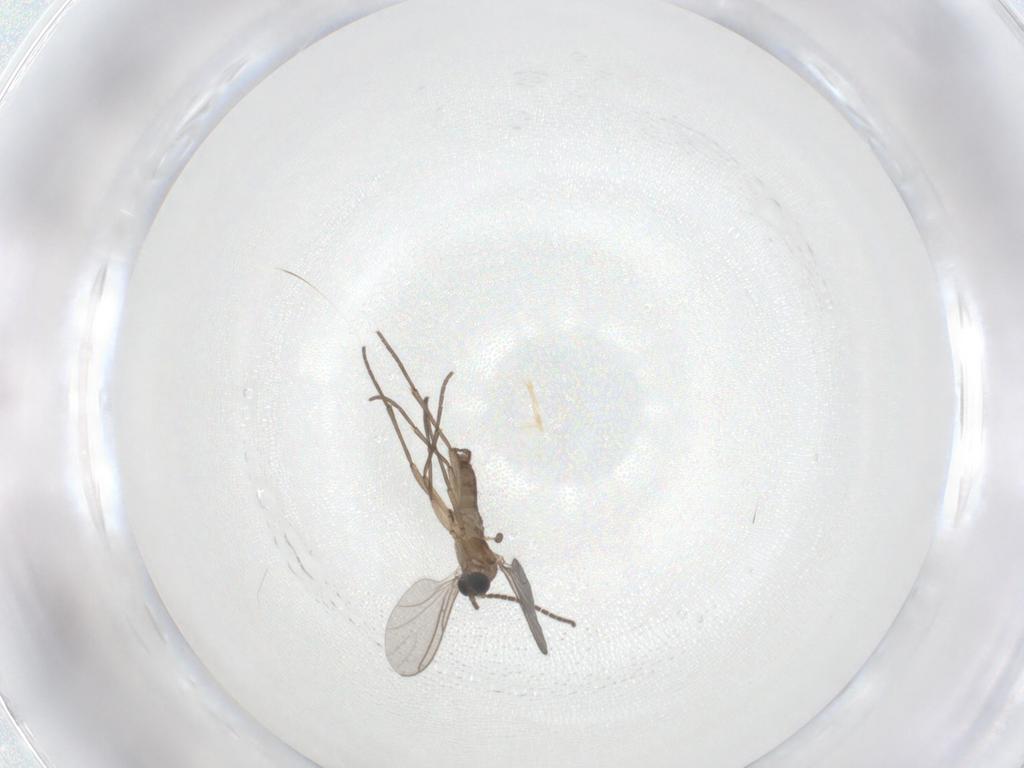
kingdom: Animalia
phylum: Arthropoda
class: Insecta
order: Diptera
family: Sciaridae
